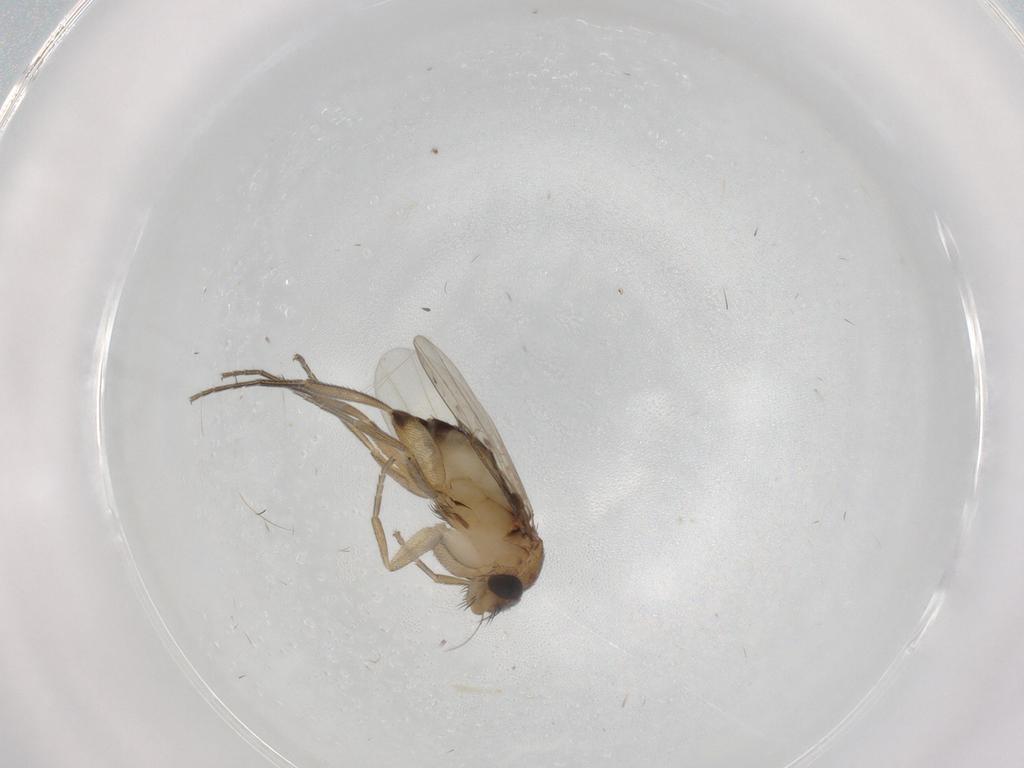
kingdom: Animalia
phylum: Arthropoda
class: Insecta
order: Diptera
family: Phoridae
